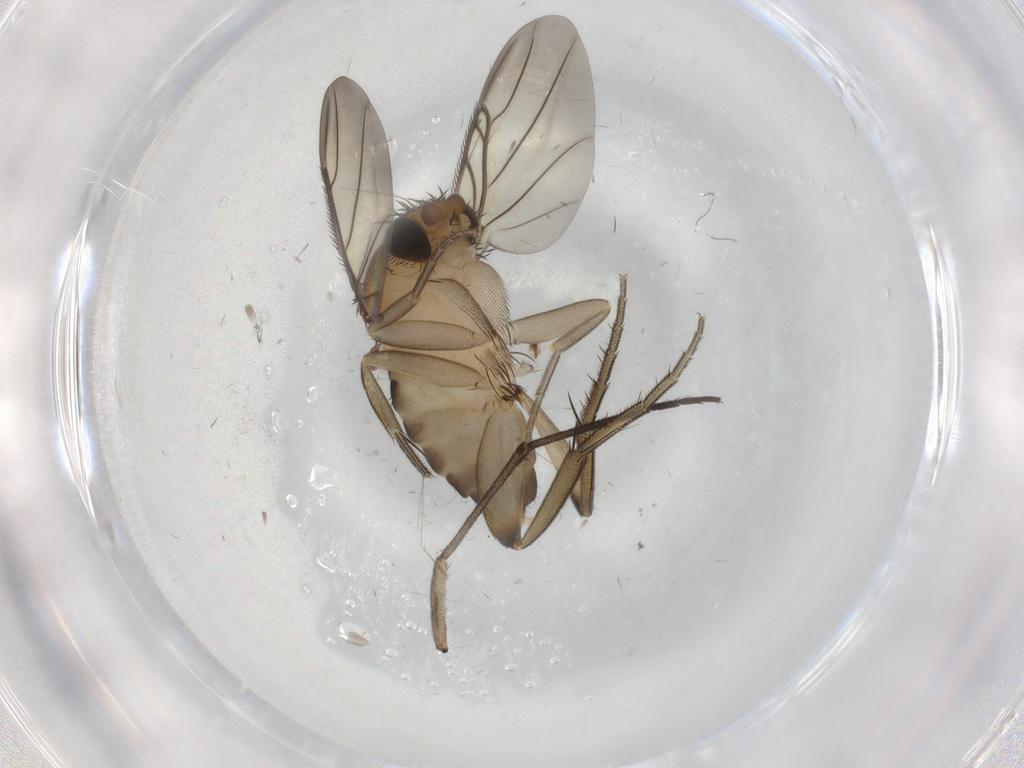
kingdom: Animalia
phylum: Arthropoda
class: Insecta
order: Diptera
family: Phoridae
